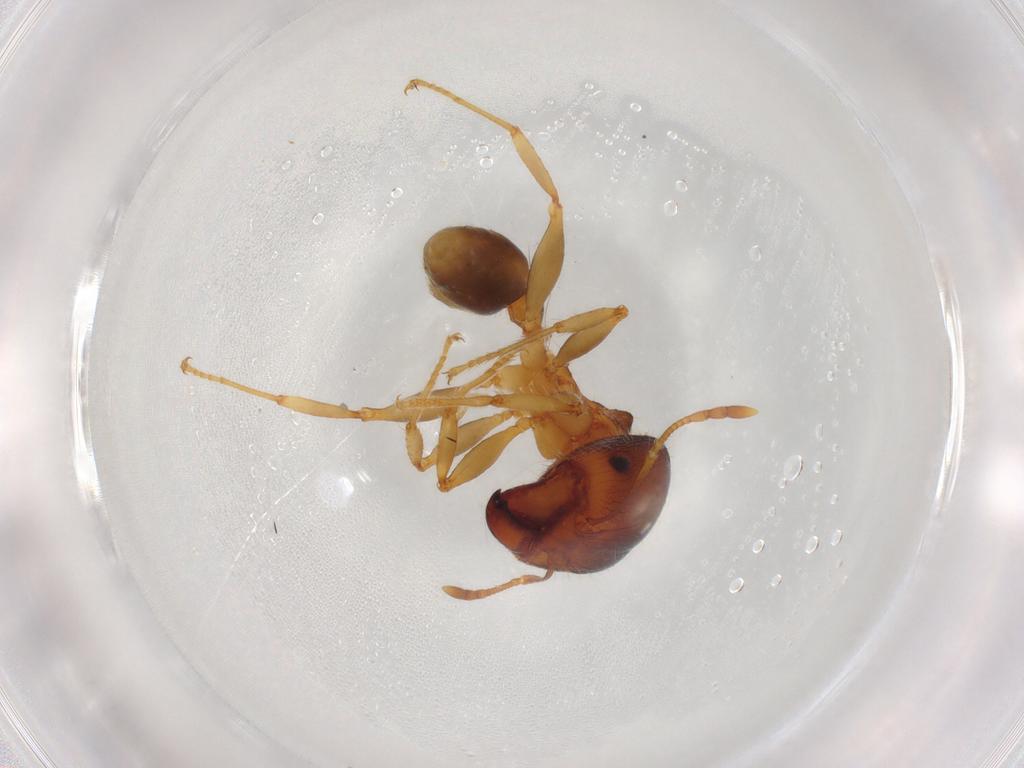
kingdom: Animalia
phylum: Arthropoda
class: Insecta
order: Hymenoptera
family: Diapriidae
